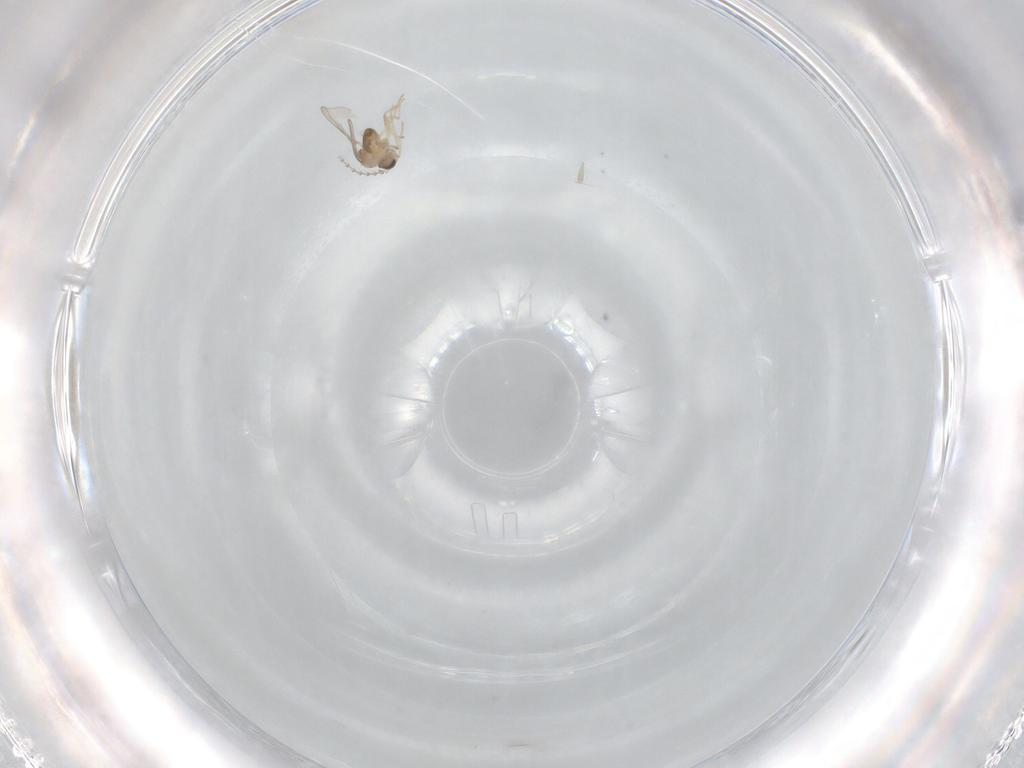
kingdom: Animalia
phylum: Arthropoda
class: Insecta
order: Diptera
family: Cecidomyiidae
